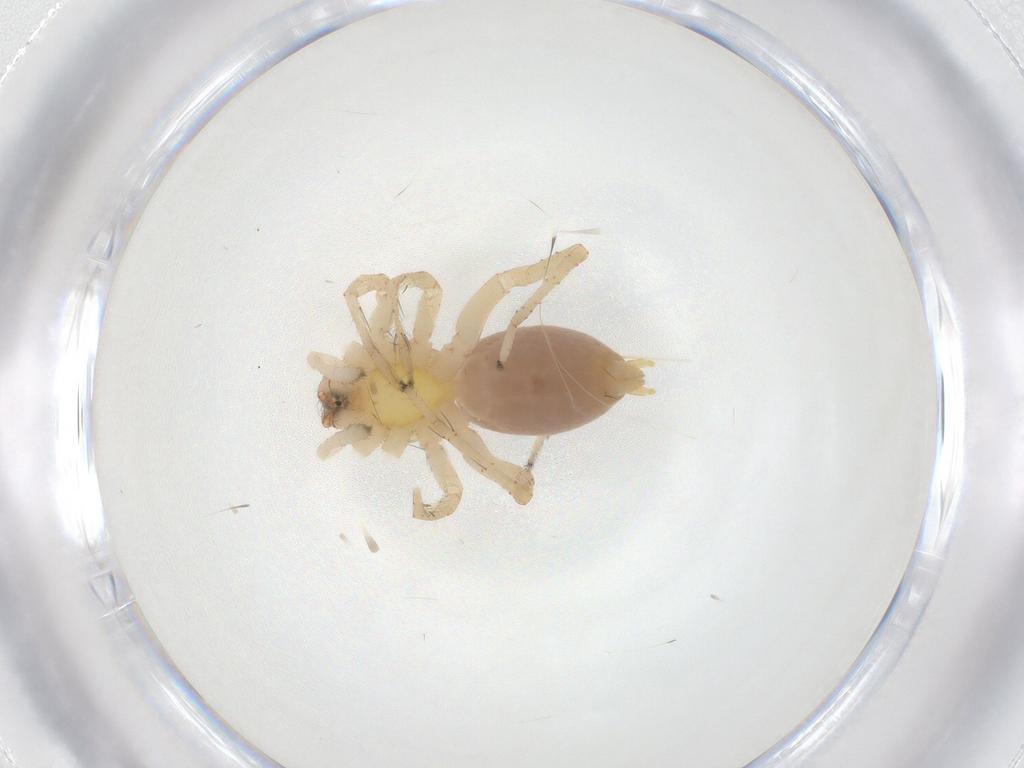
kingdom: Animalia
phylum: Arthropoda
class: Arachnida
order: Araneae
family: Anyphaenidae
